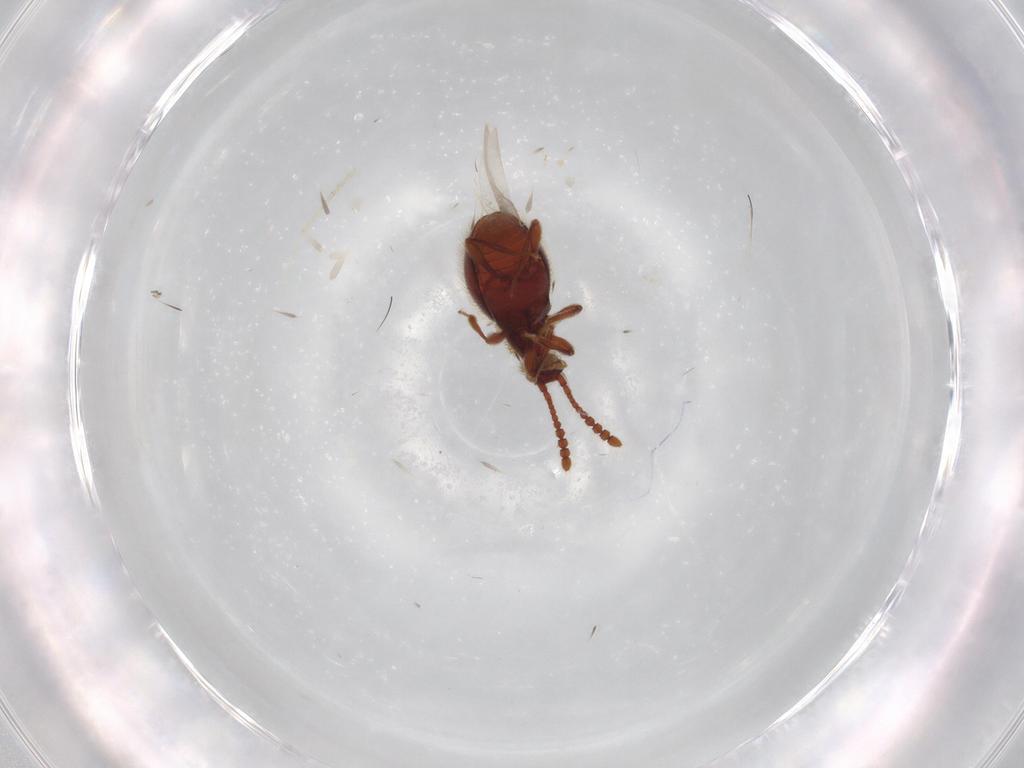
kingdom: Animalia
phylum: Arthropoda
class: Insecta
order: Coleoptera
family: Staphylinidae
